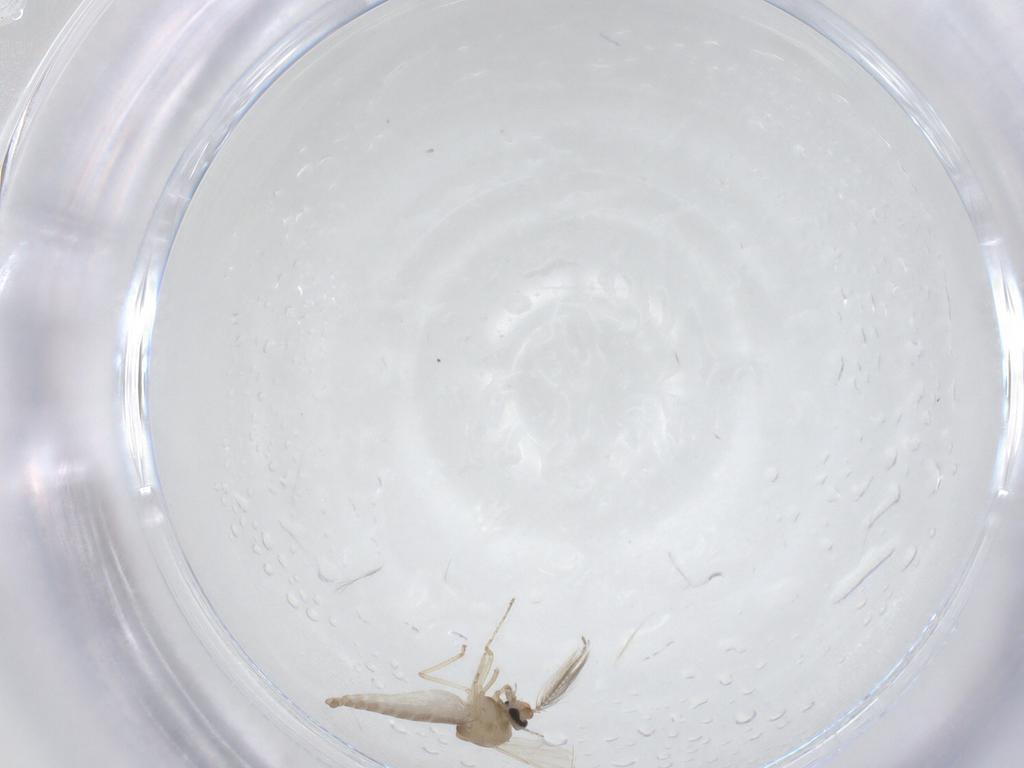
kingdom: Animalia
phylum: Arthropoda
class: Insecta
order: Diptera
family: Ceratopogonidae
